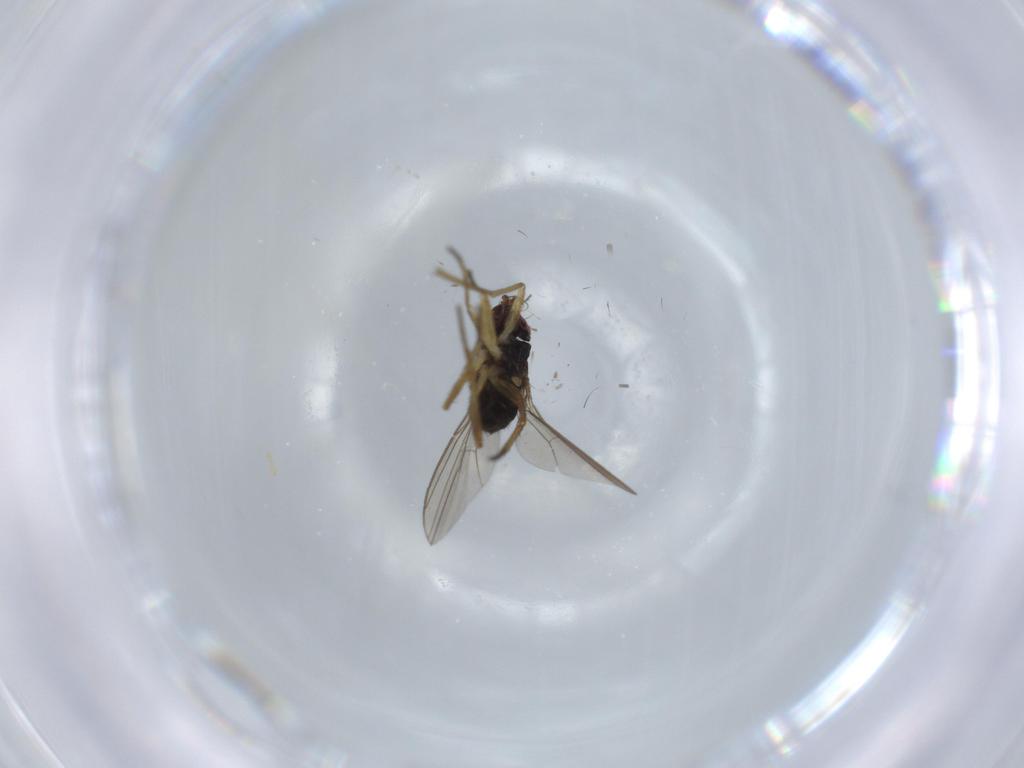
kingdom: Animalia
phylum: Arthropoda
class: Insecta
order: Diptera
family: Dolichopodidae
